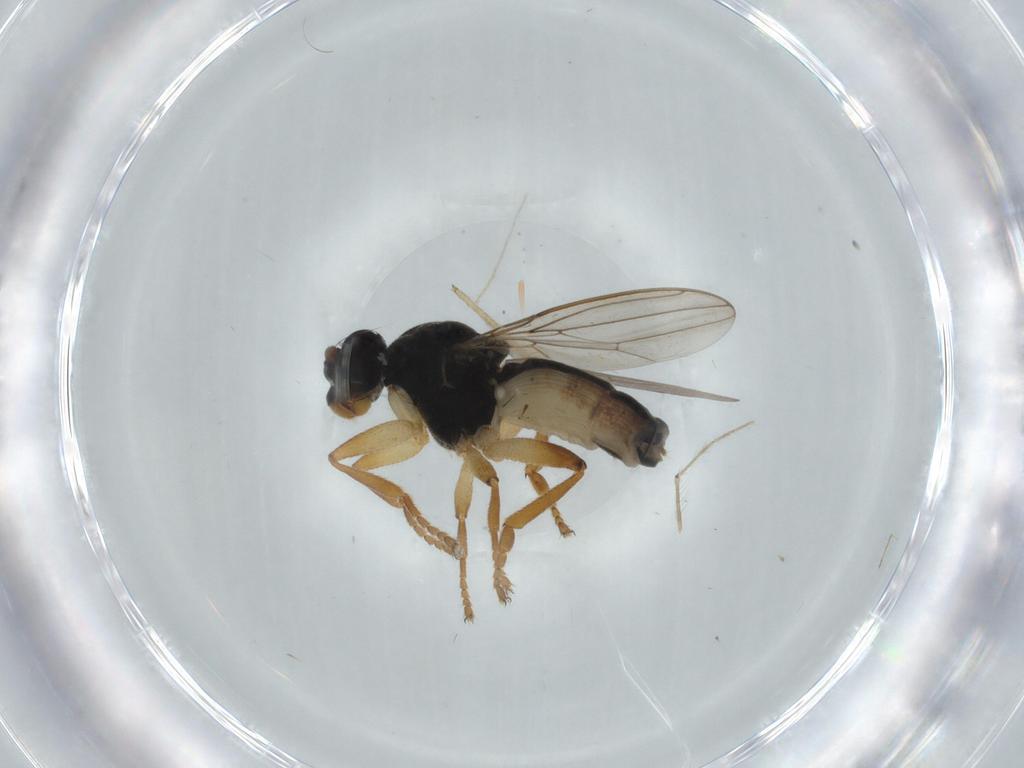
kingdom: Animalia
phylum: Arthropoda
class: Insecta
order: Diptera
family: Sphaeroceridae
